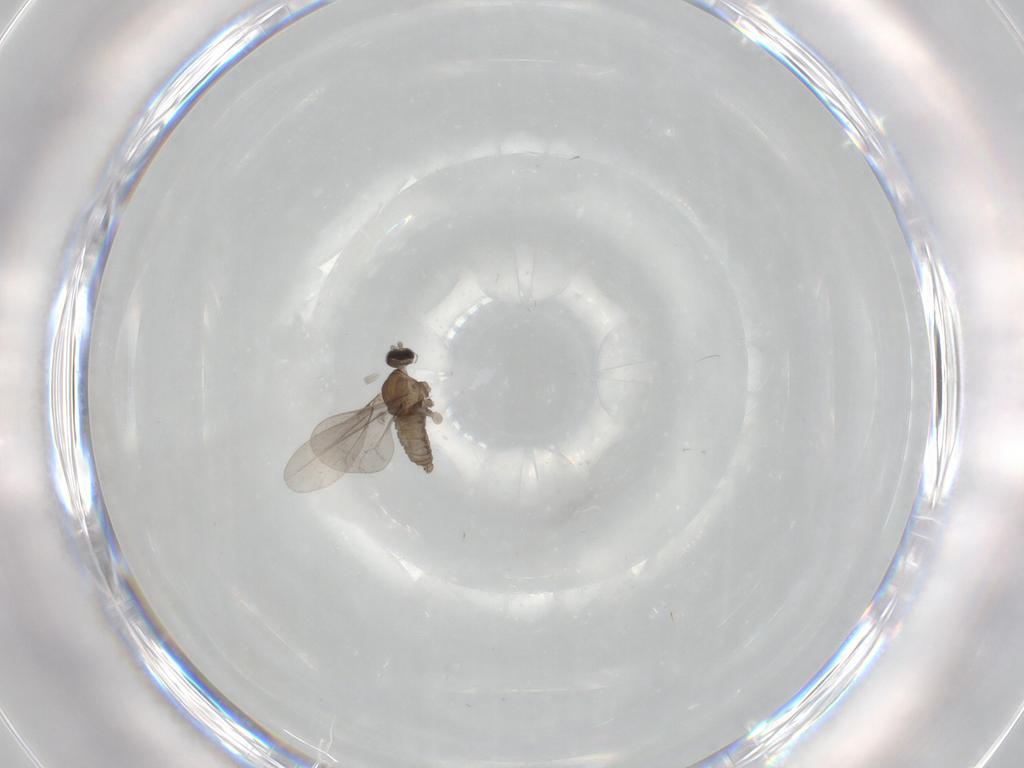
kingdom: Animalia
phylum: Arthropoda
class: Insecta
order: Diptera
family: Cecidomyiidae
